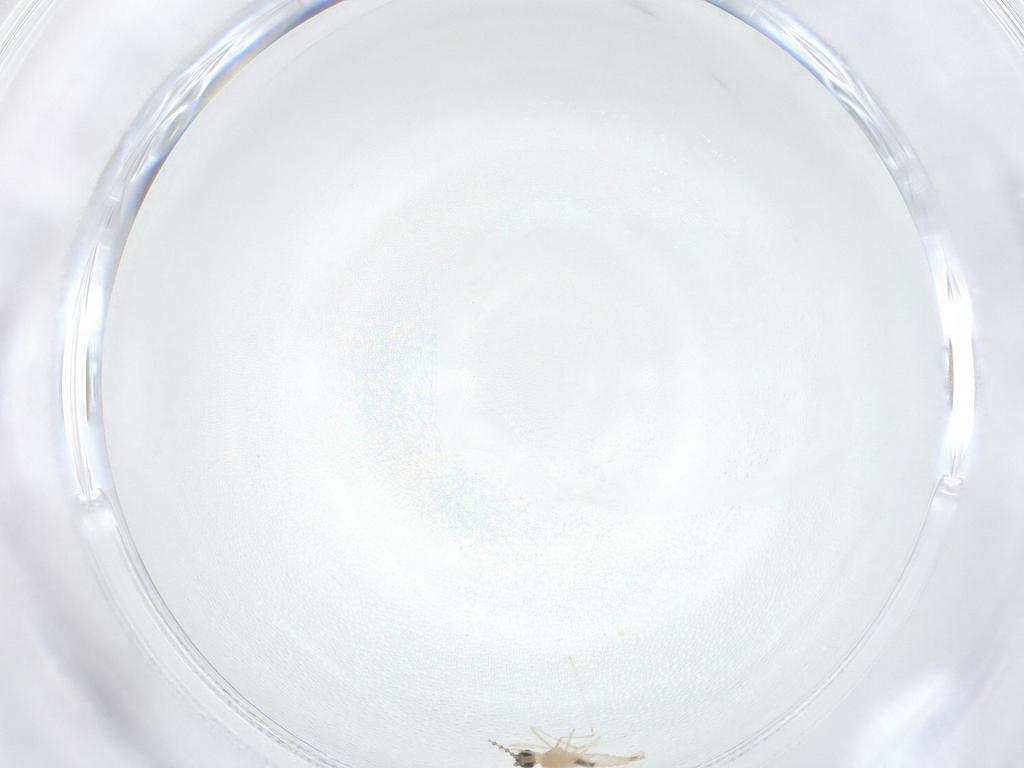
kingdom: Animalia
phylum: Arthropoda
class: Insecta
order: Diptera
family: Cecidomyiidae
